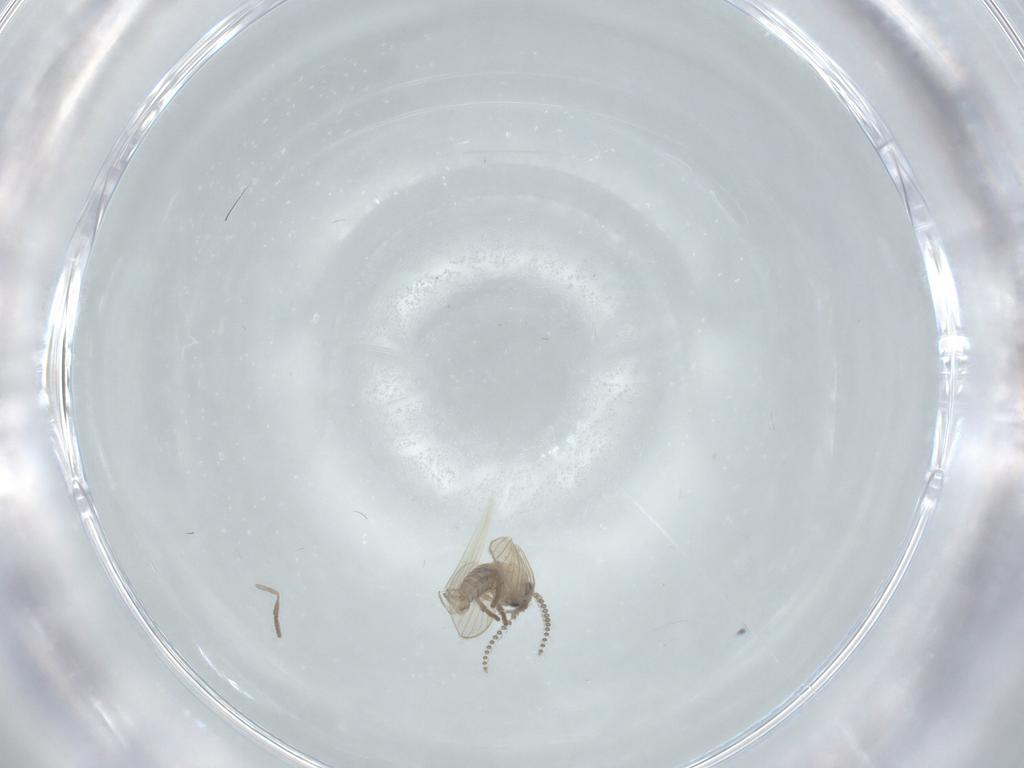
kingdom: Animalia
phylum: Arthropoda
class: Insecta
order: Diptera
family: Psychodidae
